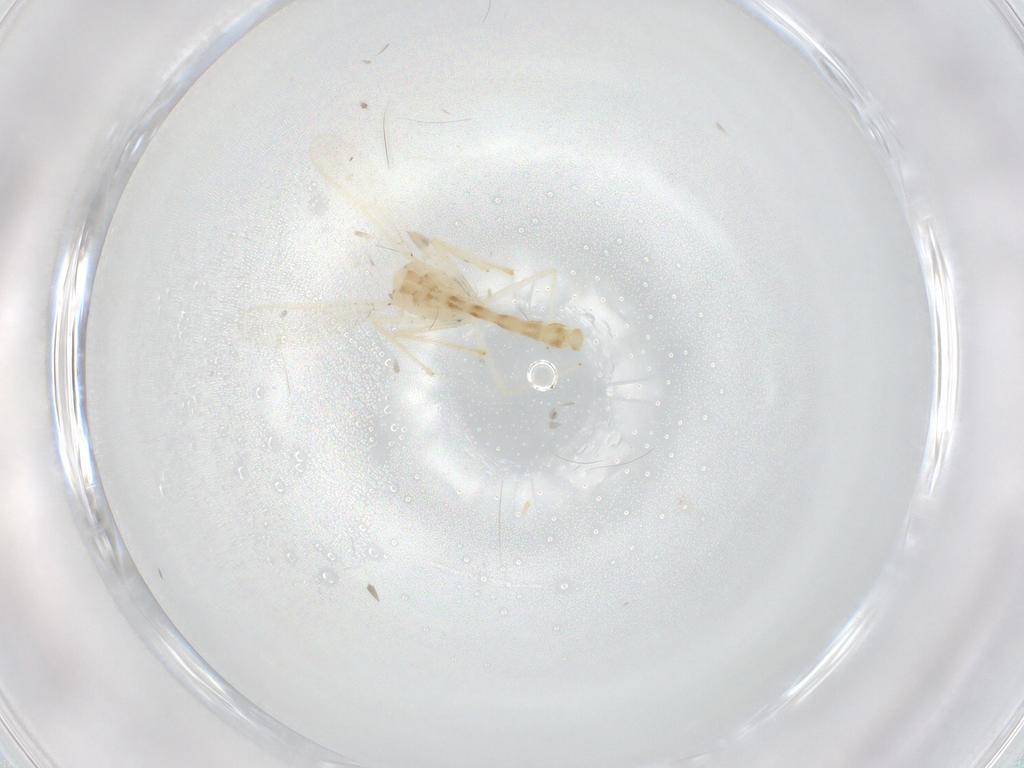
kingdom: Animalia
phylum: Arthropoda
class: Insecta
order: Diptera
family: Chironomidae
